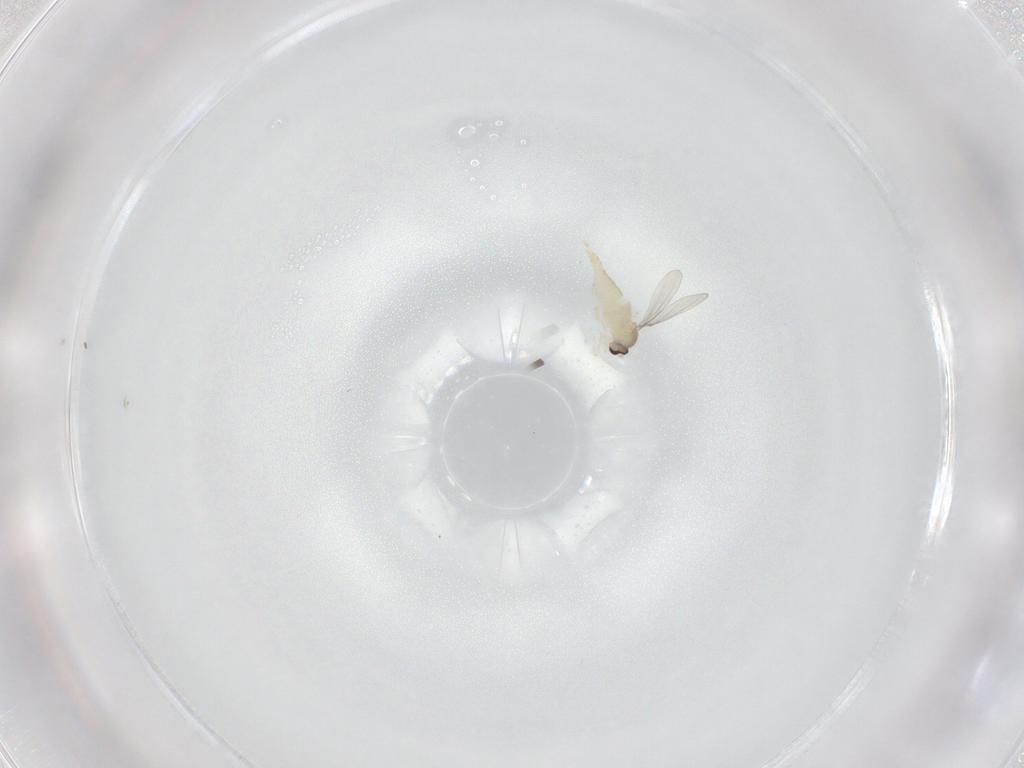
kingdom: Animalia
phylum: Arthropoda
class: Insecta
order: Diptera
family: Cecidomyiidae
